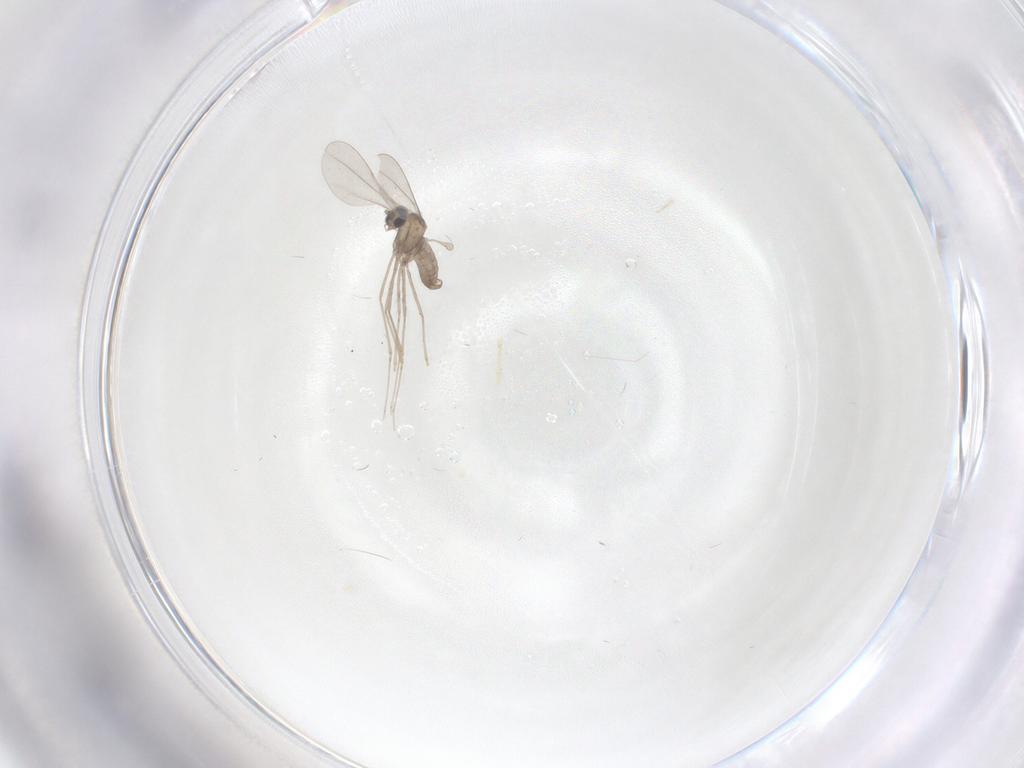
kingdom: Animalia
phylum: Arthropoda
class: Insecta
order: Diptera
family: Cecidomyiidae
